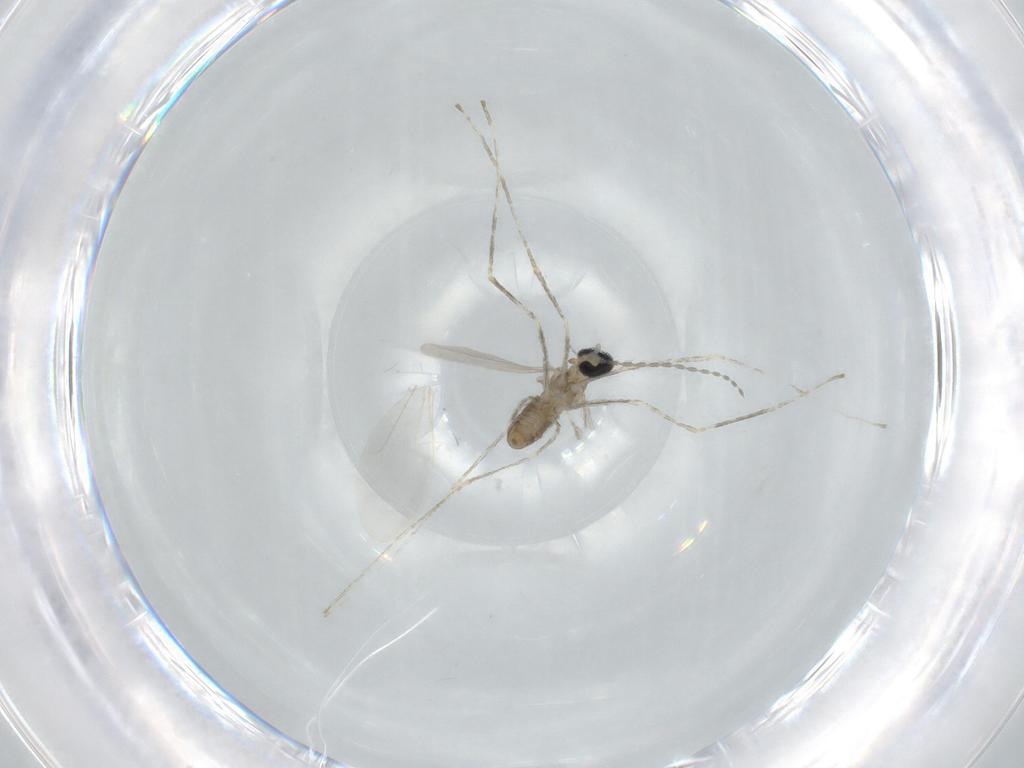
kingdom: Animalia
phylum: Arthropoda
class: Insecta
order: Diptera
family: Cecidomyiidae
